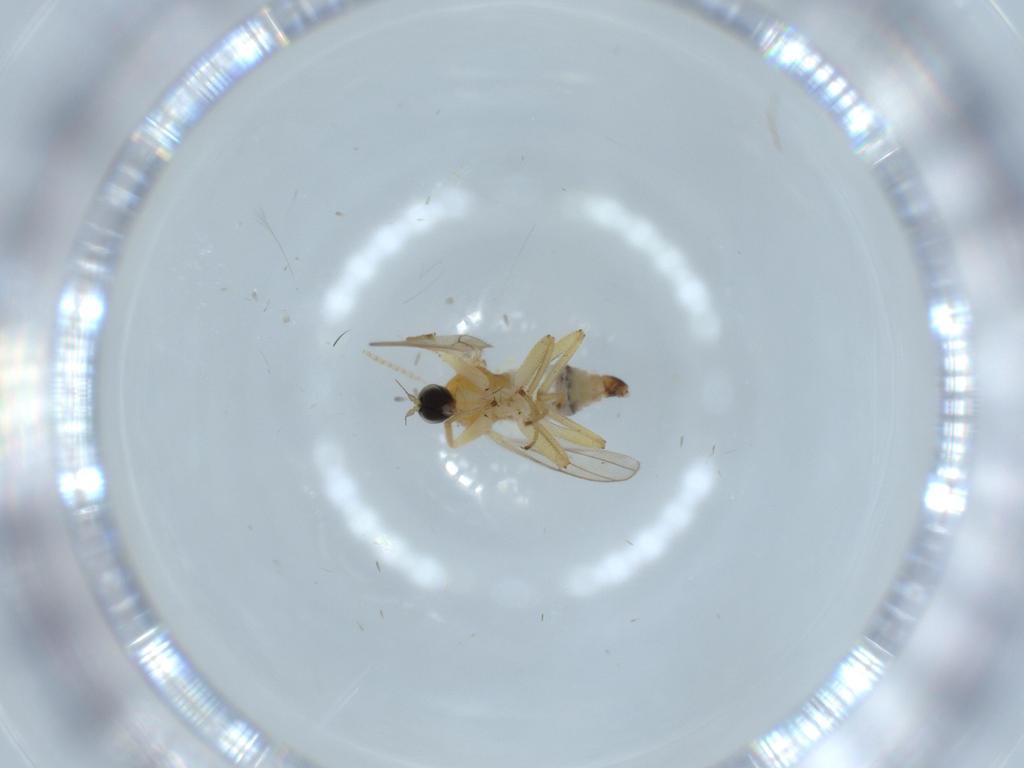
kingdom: Animalia
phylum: Arthropoda
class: Insecta
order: Diptera
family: Hybotidae
